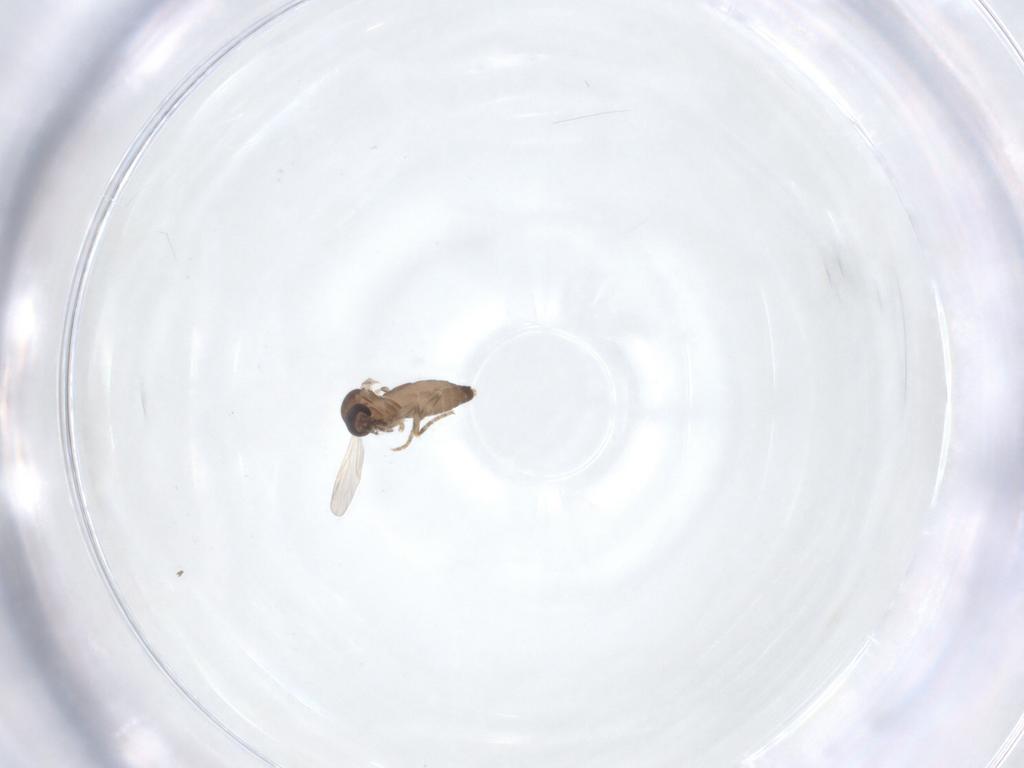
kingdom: Animalia
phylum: Arthropoda
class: Insecta
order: Diptera
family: Ceratopogonidae
